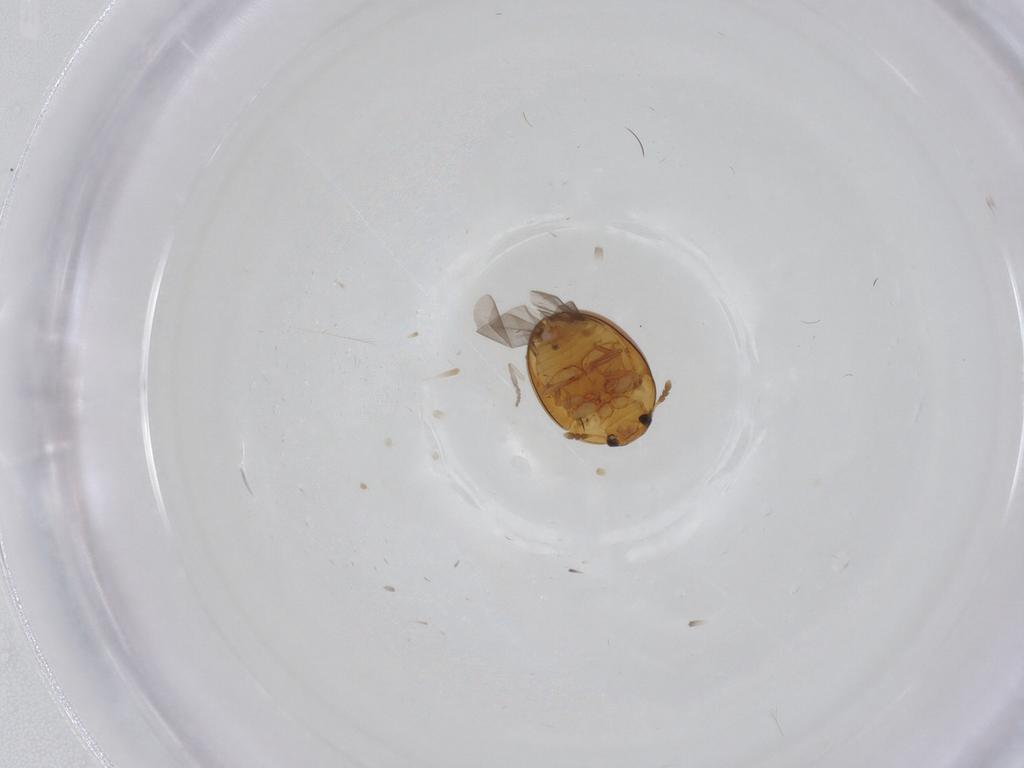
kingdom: Animalia
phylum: Arthropoda
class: Insecta
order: Coleoptera
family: Phalacridae
